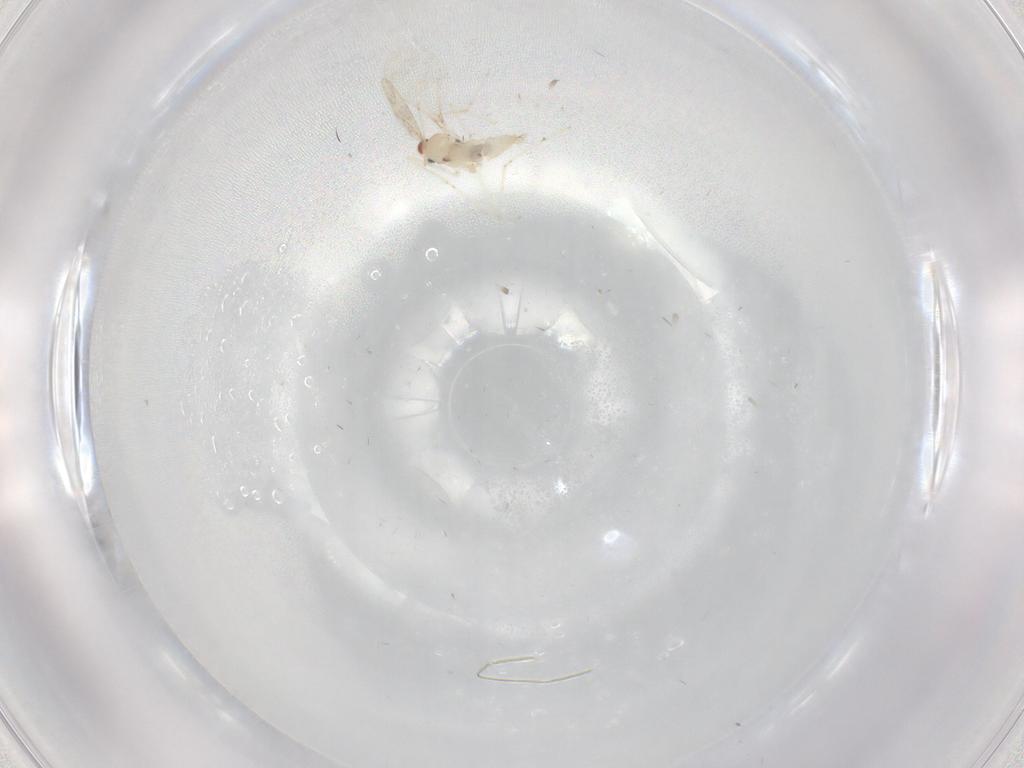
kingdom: Animalia
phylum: Arthropoda
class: Insecta
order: Diptera
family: Cecidomyiidae
